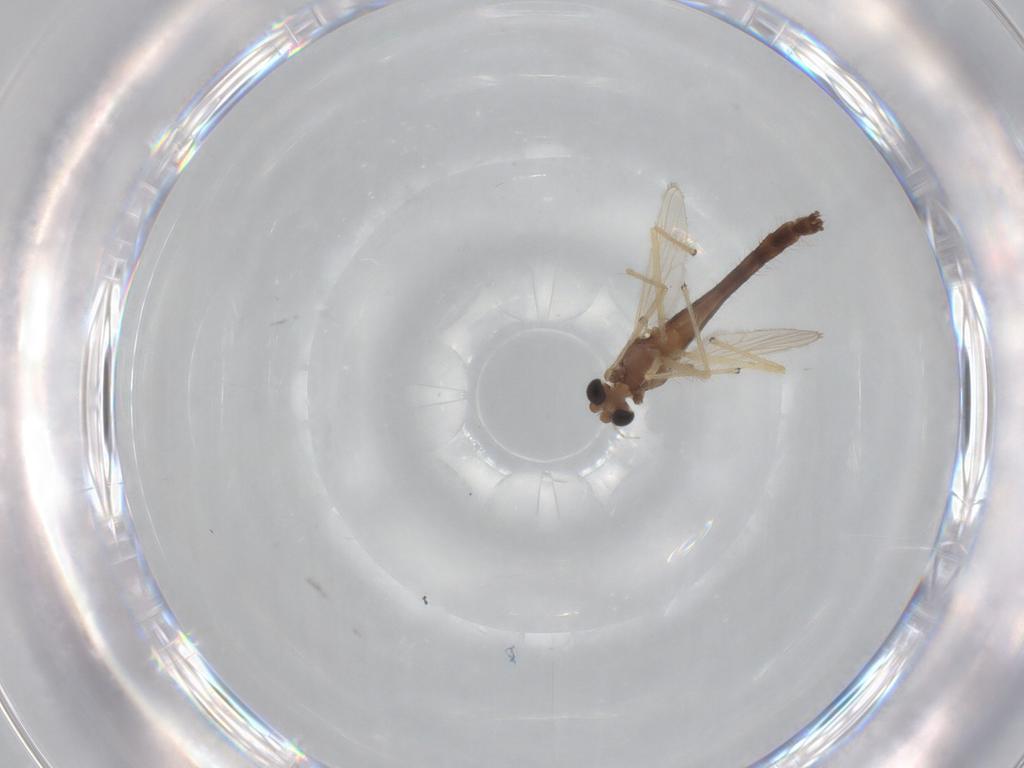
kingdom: Animalia
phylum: Arthropoda
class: Insecta
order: Diptera
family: Chironomidae
